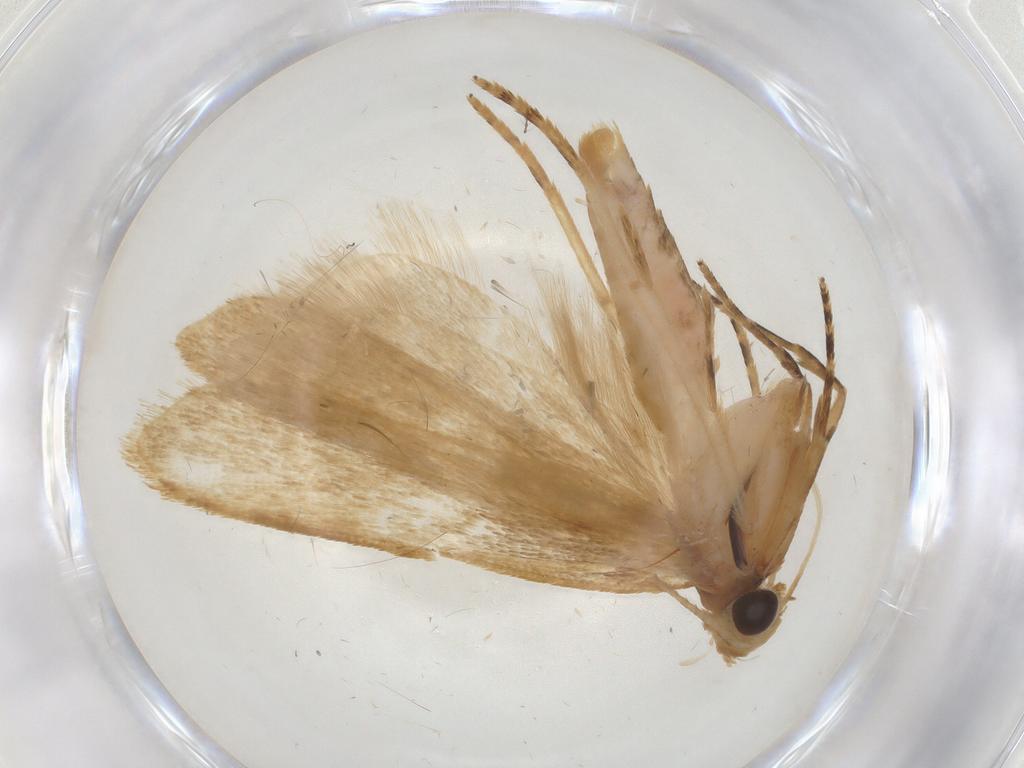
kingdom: Animalia
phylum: Arthropoda
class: Insecta
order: Lepidoptera
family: Gelechiidae
